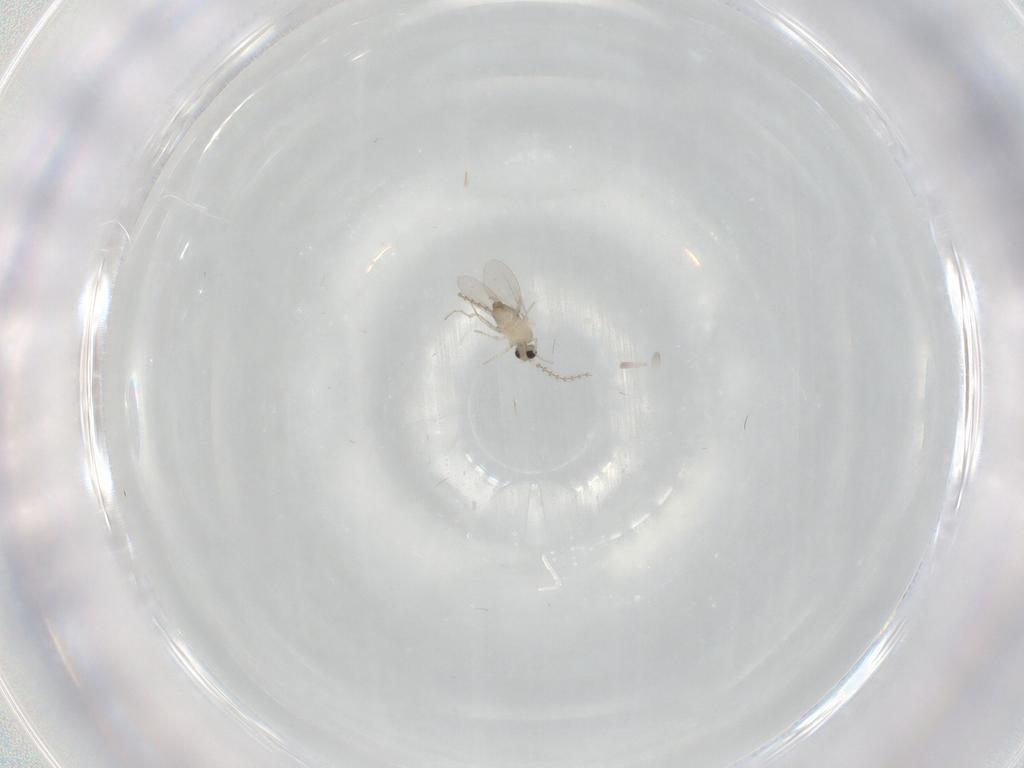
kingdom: Animalia
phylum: Arthropoda
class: Insecta
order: Diptera
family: Cecidomyiidae
